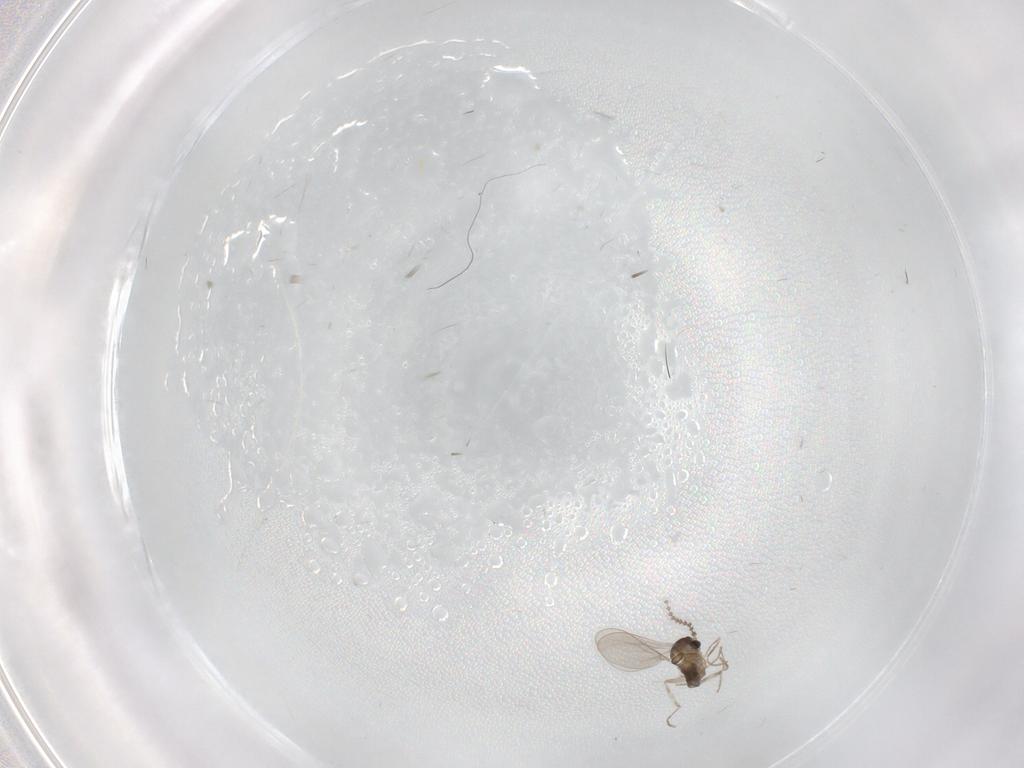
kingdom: Animalia
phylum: Arthropoda
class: Insecta
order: Diptera
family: Cecidomyiidae
